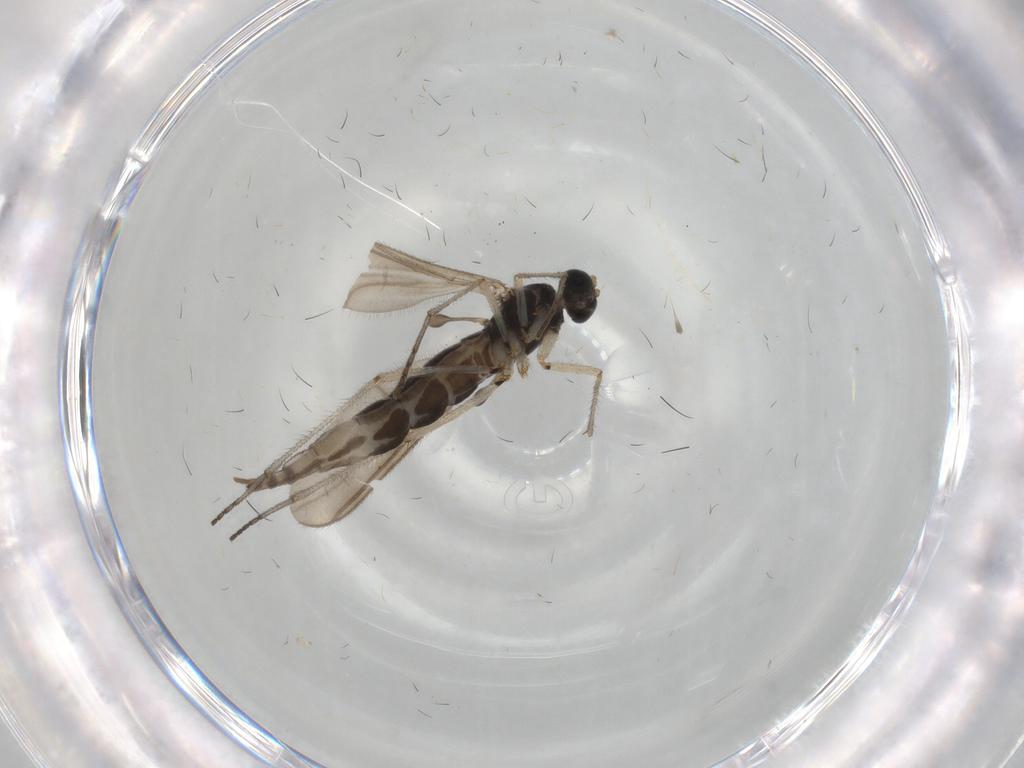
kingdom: Animalia
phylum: Arthropoda
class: Insecta
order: Diptera
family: Sciaridae
